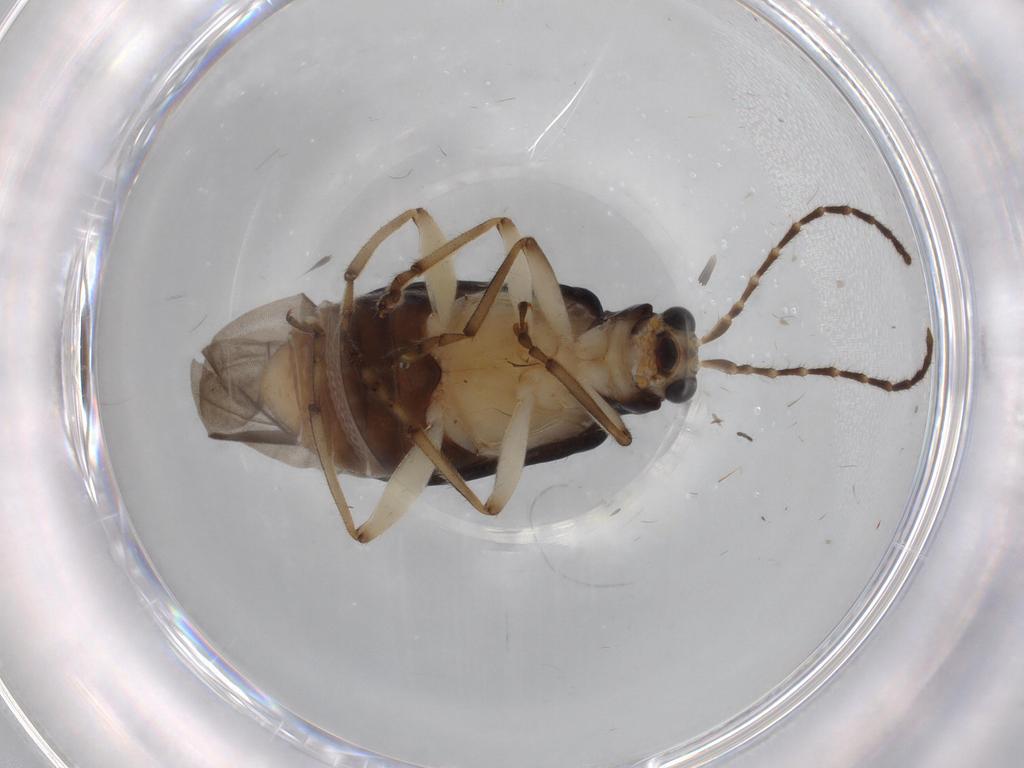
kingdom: Animalia
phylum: Arthropoda
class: Insecta
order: Coleoptera
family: Chrysomelidae
